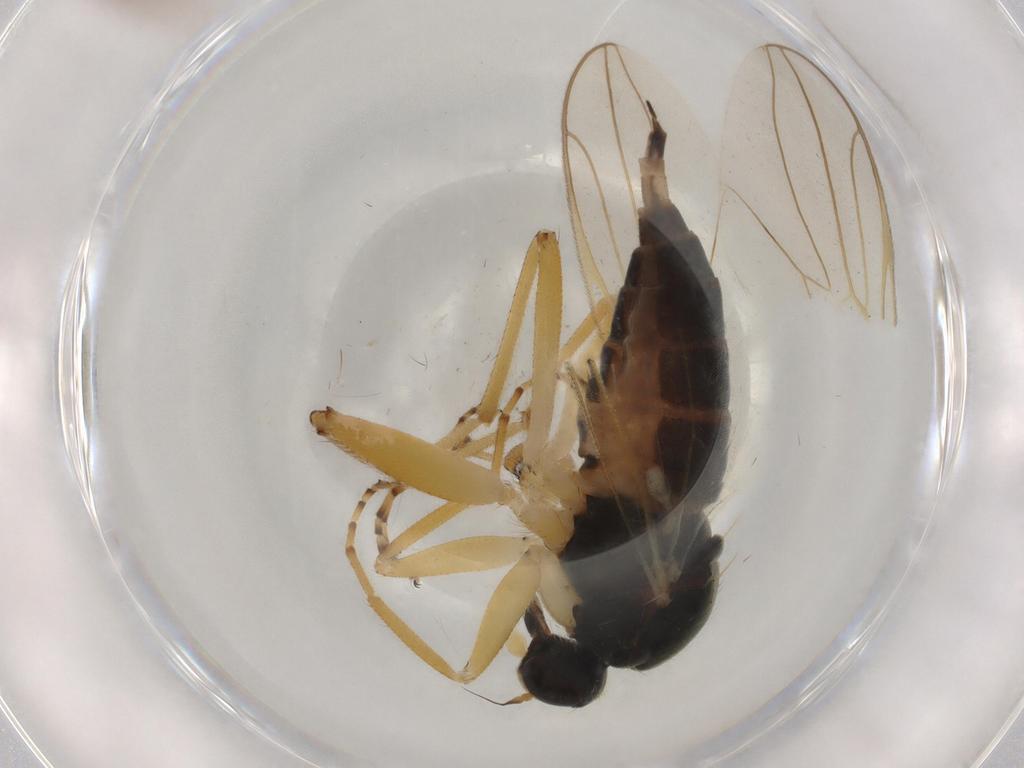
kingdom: Animalia
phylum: Arthropoda
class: Insecta
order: Diptera
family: Hybotidae
